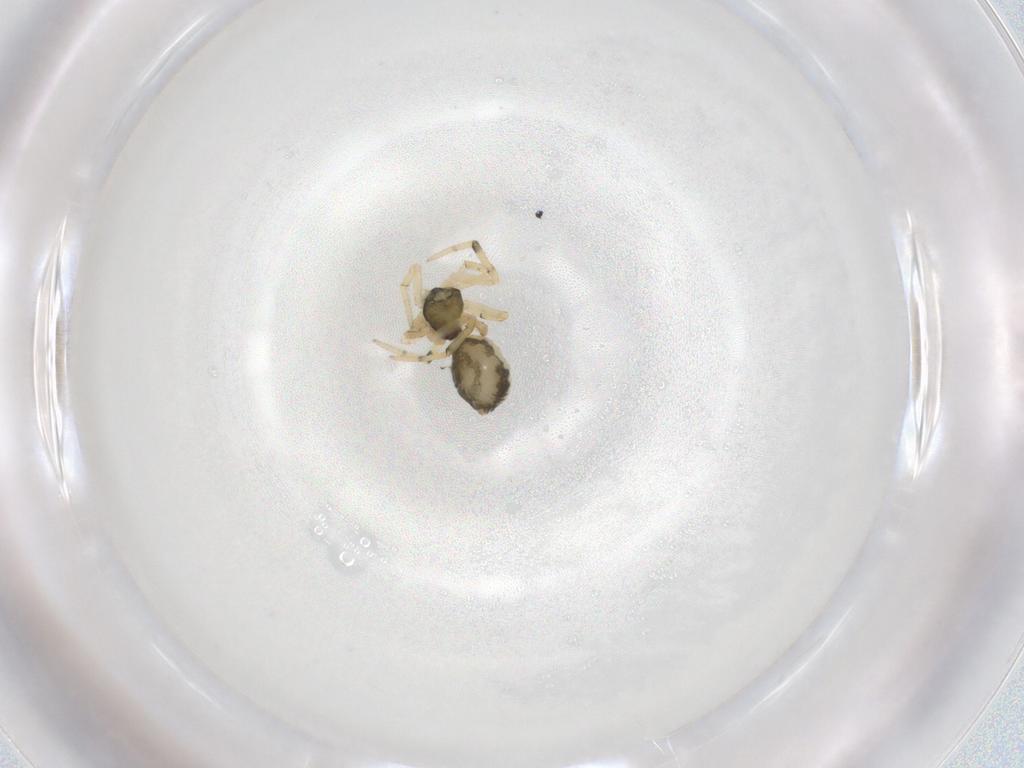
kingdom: Animalia
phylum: Arthropoda
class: Arachnida
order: Araneae
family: Theridiidae
